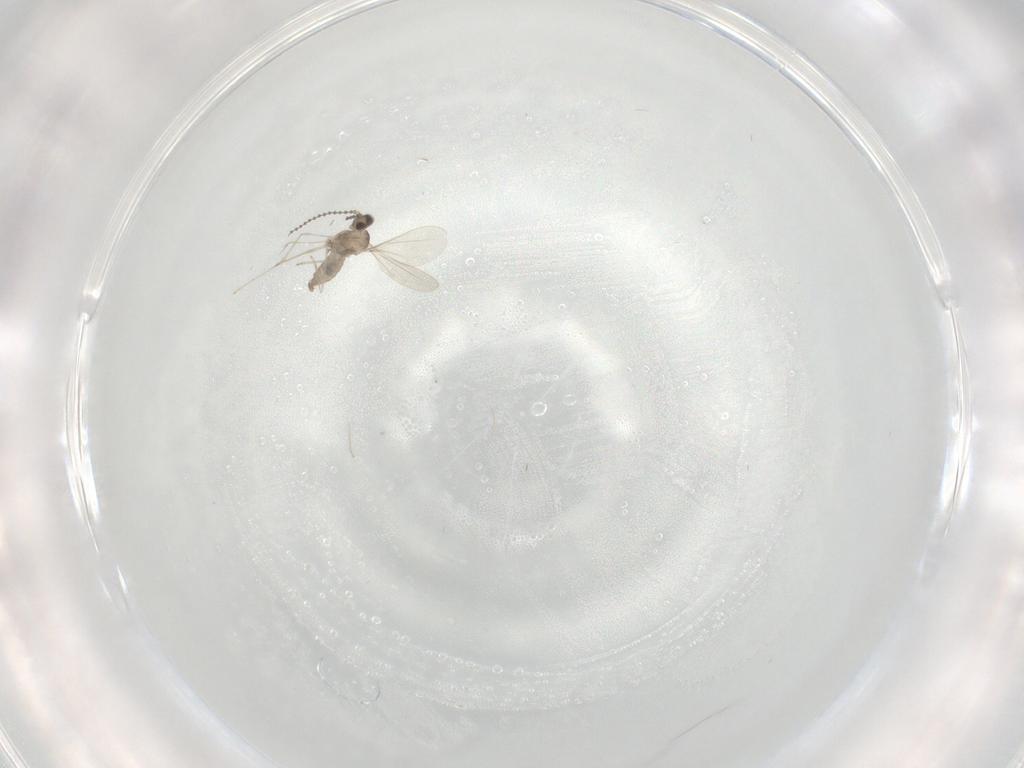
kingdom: Animalia
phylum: Arthropoda
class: Insecta
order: Diptera
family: Cecidomyiidae
